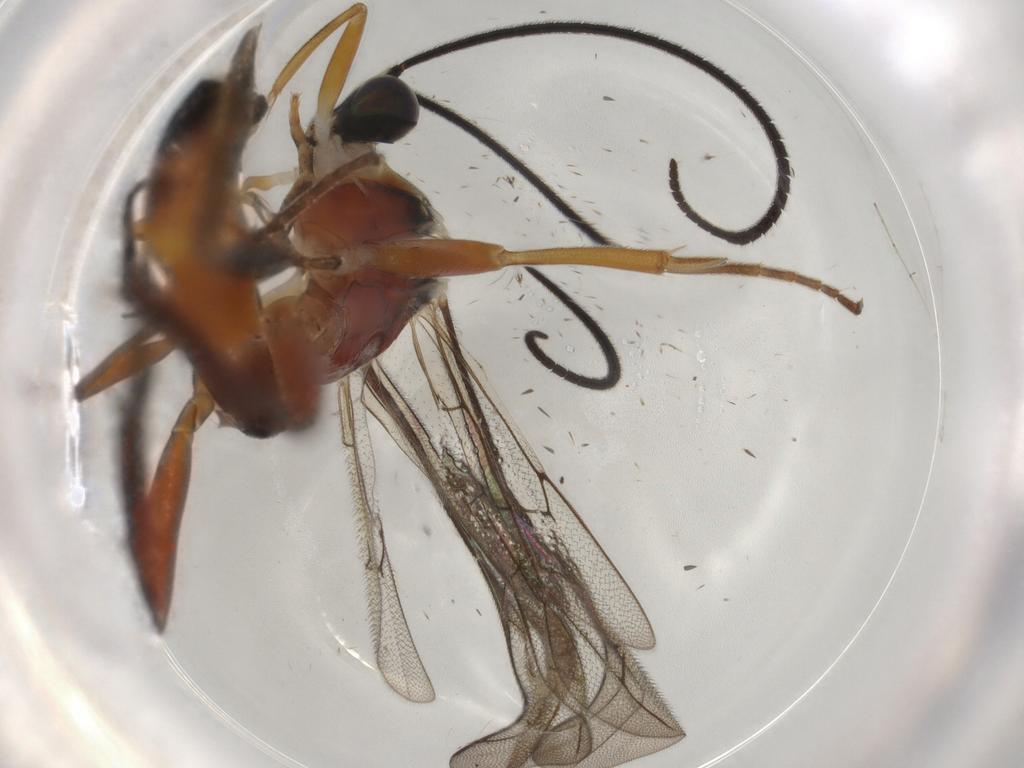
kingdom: Animalia
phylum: Arthropoda
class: Insecta
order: Hymenoptera
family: Ichneumonidae
